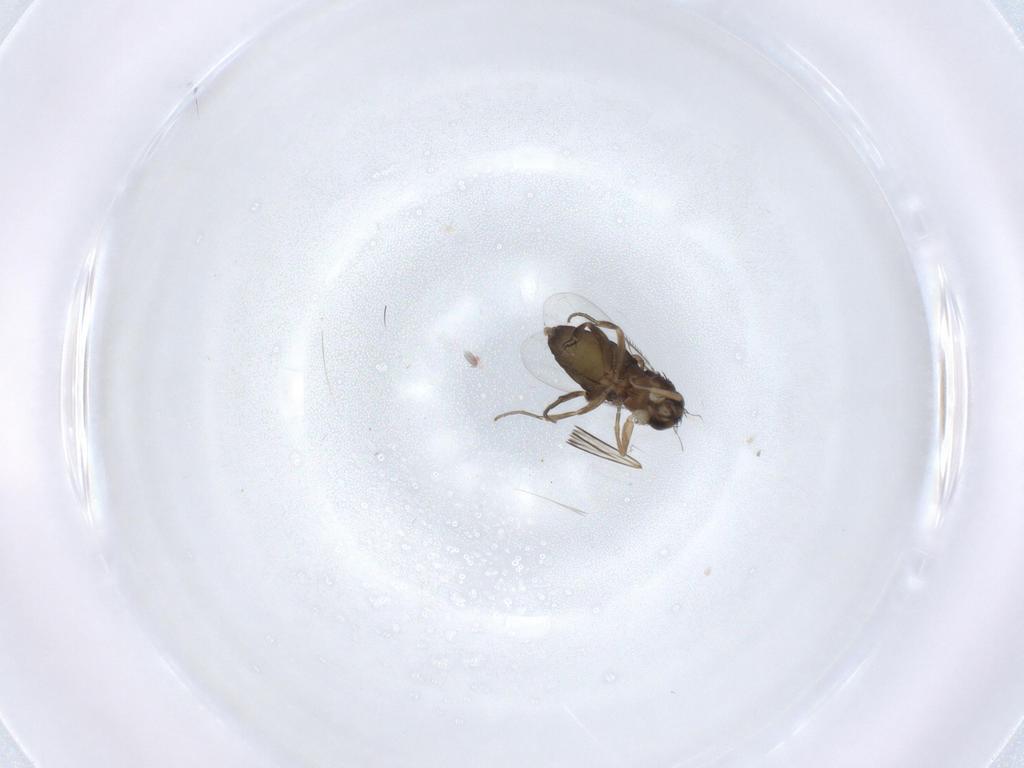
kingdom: Animalia
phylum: Arthropoda
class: Insecta
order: Diptera
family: Phoridae
